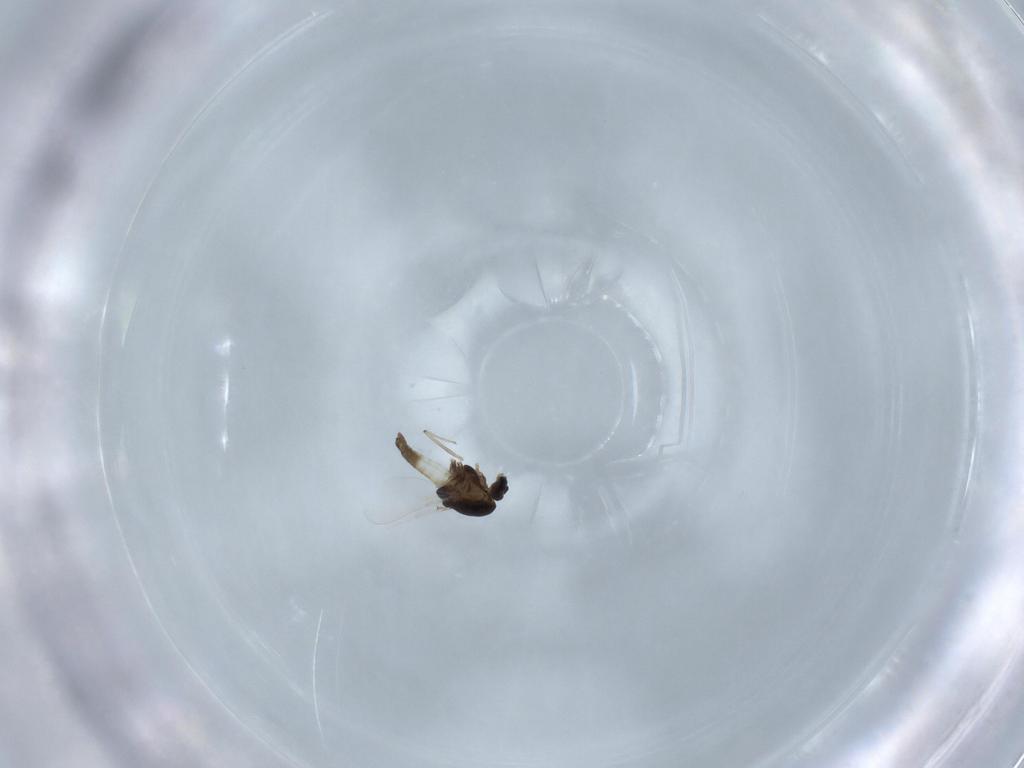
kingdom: Animalia
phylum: Arthropoda
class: Insecta
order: Diptera
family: Chironomidae
